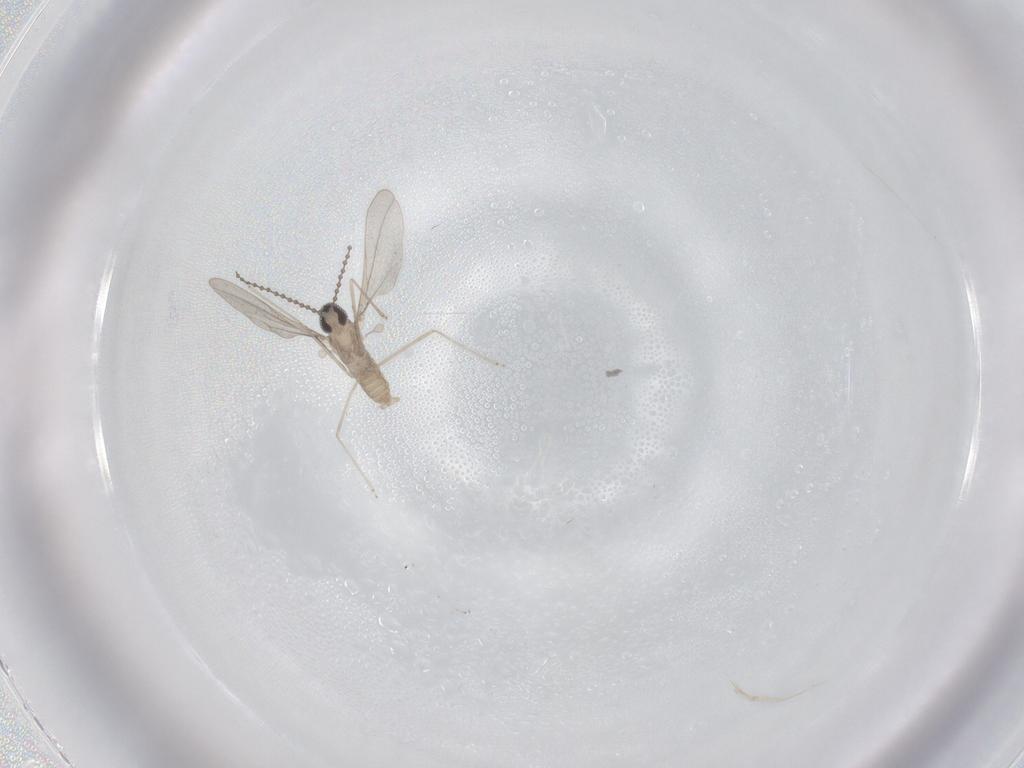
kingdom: Animalia
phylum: Arthropoda
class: Insecta
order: Diptera
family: Cecidomyiidae
